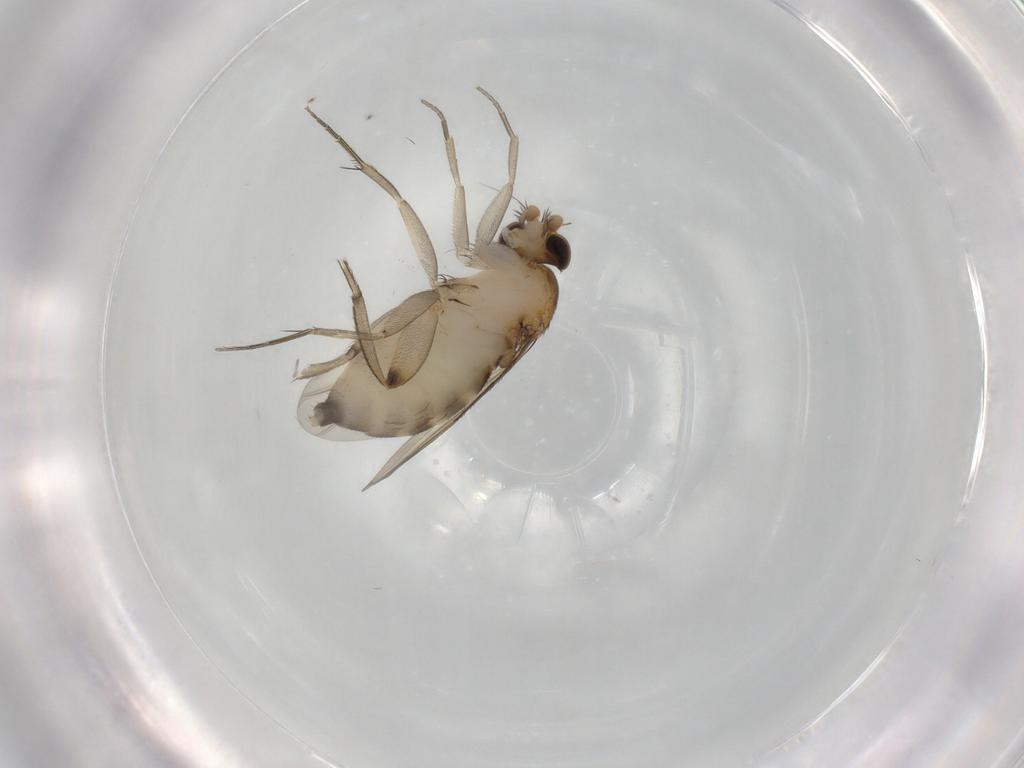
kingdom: Animalia
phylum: Arthropoda
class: Insecta
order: Diptera
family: Phoridae
